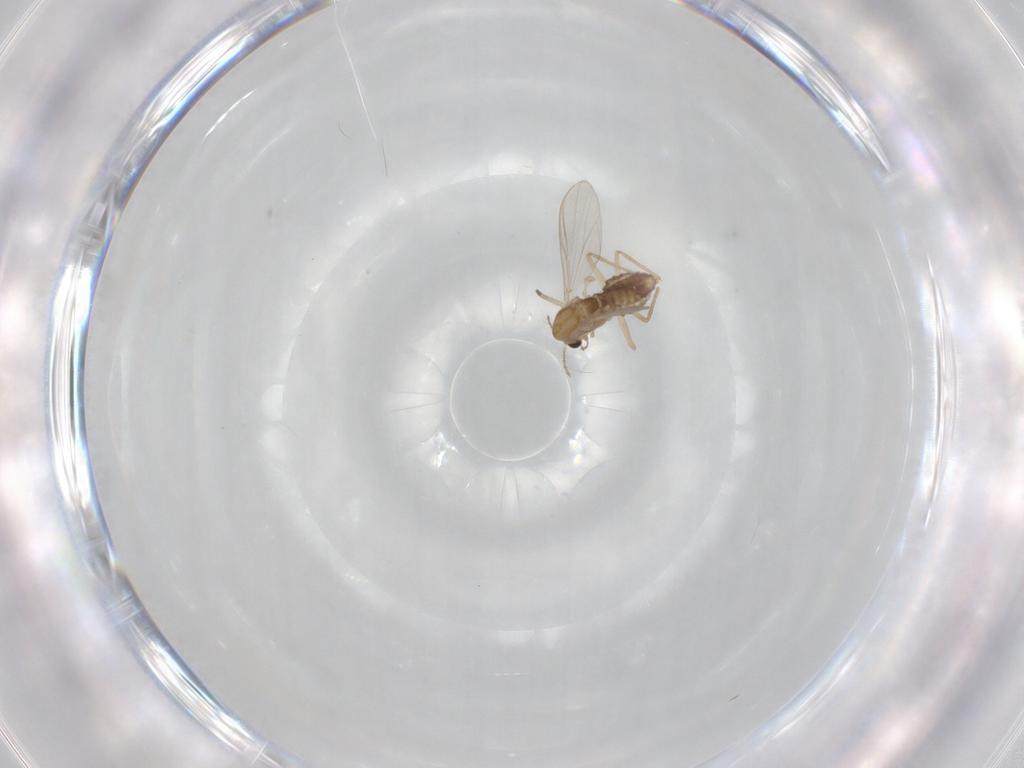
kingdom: Animalia
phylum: Arthropoda
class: Insecta
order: Diptera
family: Chironomidae
